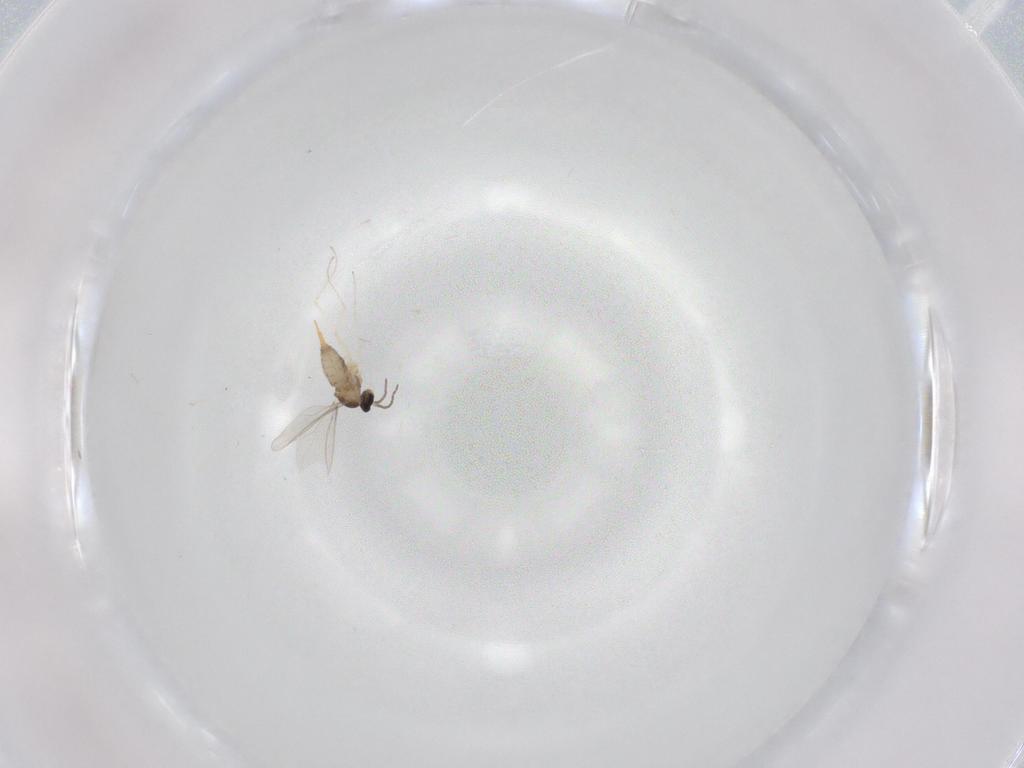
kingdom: Animalia
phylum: Arthropoda
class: Insecta
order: Diptera
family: Cecidomyiidae
